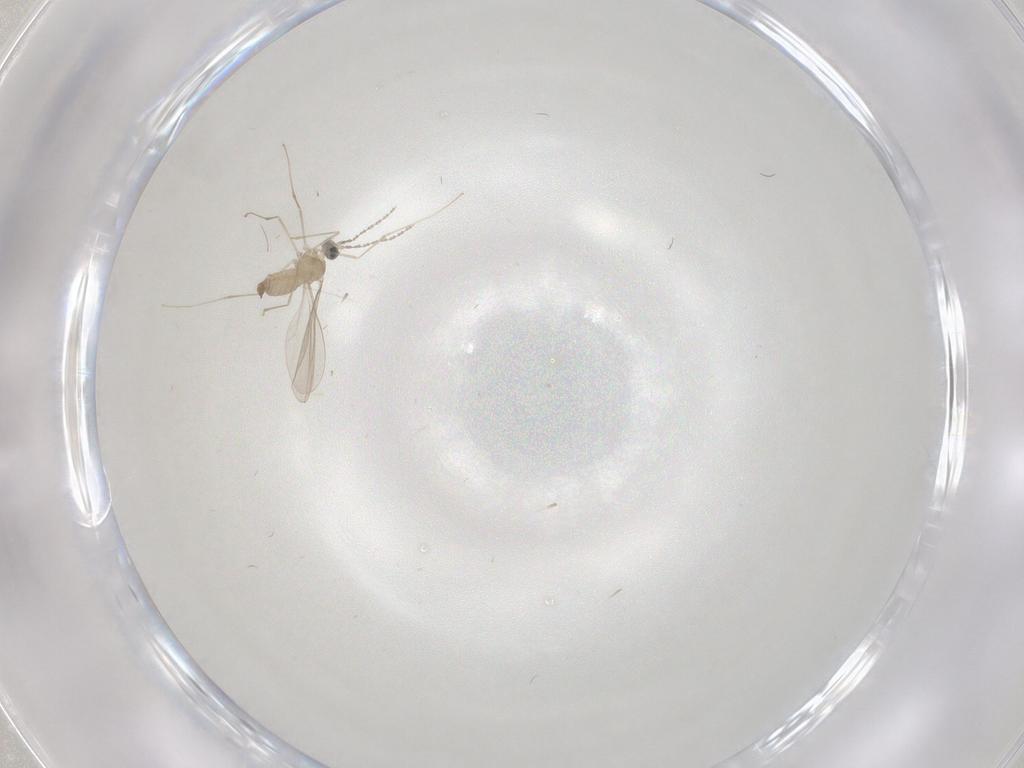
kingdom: Animalia
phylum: Arthropoda
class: Insecta
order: Diptera
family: Cecidomyiidae
